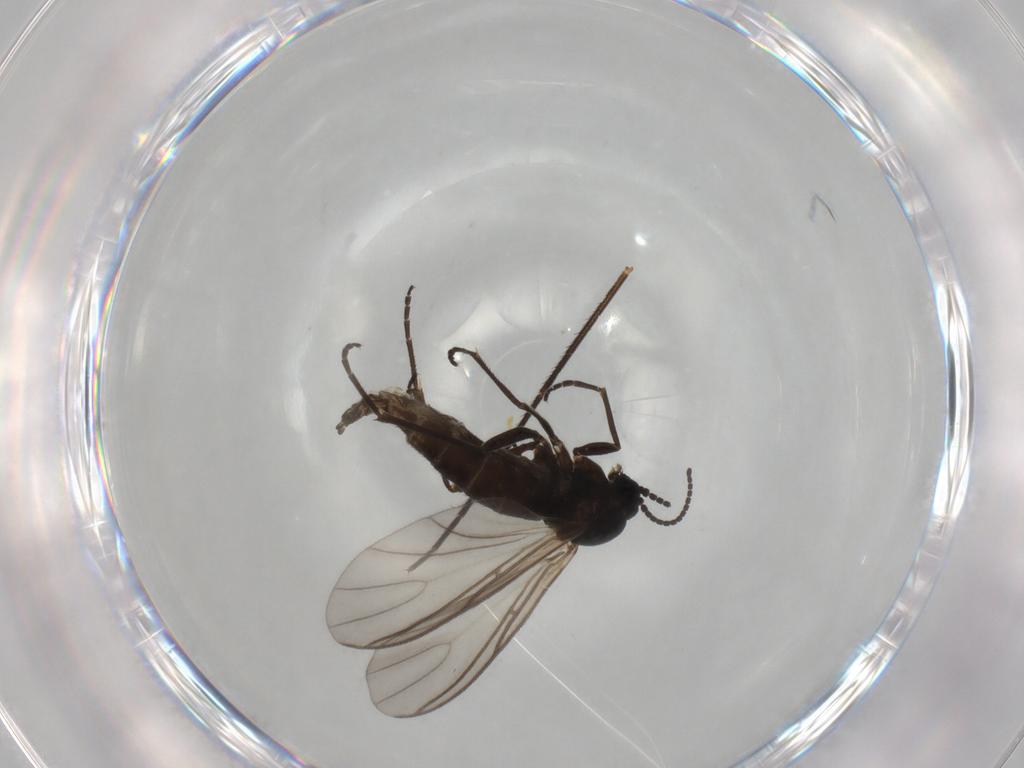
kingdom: Animalia
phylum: Arthropoda
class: Insecta
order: Diptera
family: Sciaridae
